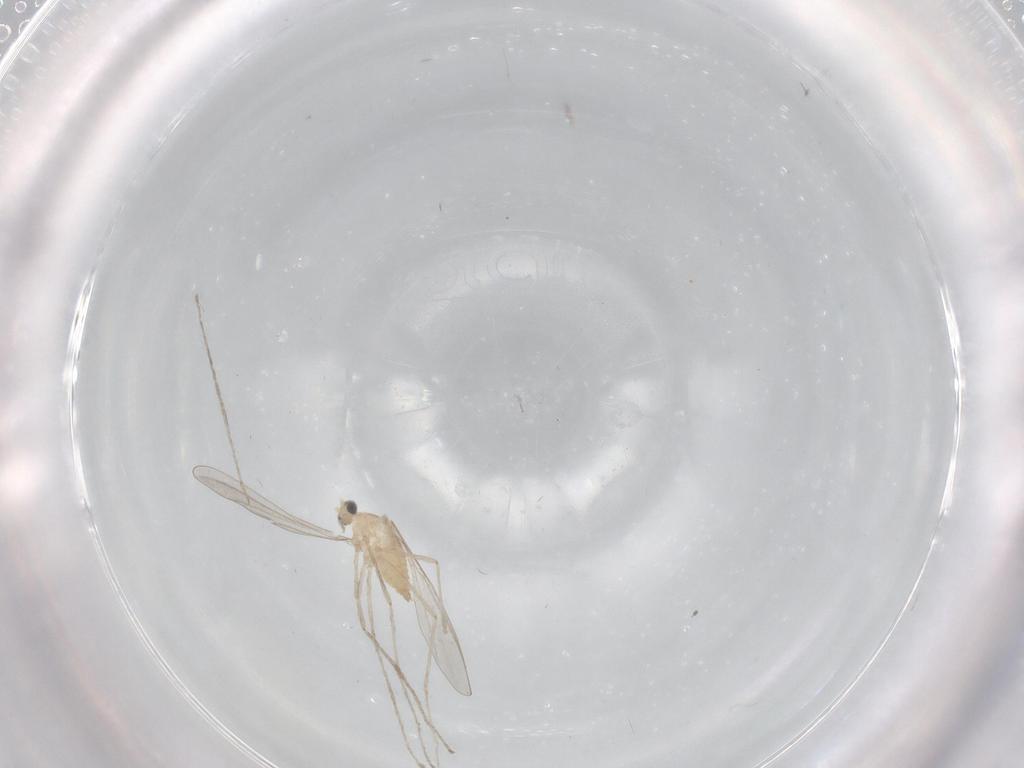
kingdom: Animalia
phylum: Arthropoda
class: Insecta
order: Diptera
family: Cecidomyiidae
